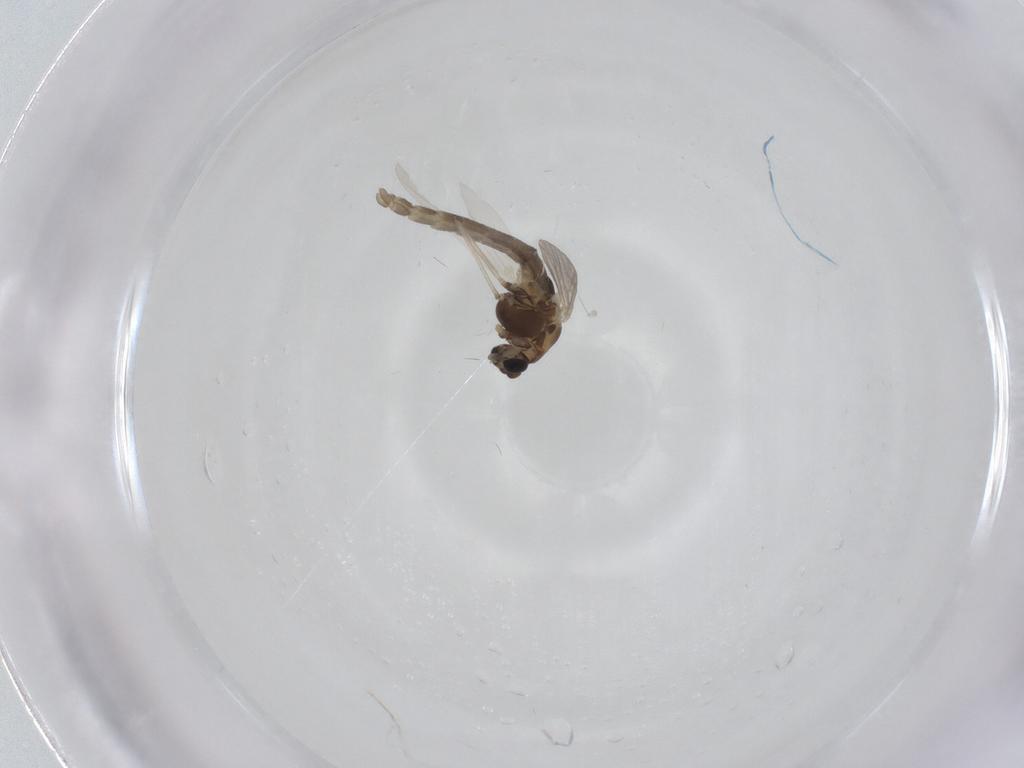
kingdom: Animalia
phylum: Arthropoda
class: Insecta
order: Diptera
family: Chironomidae
